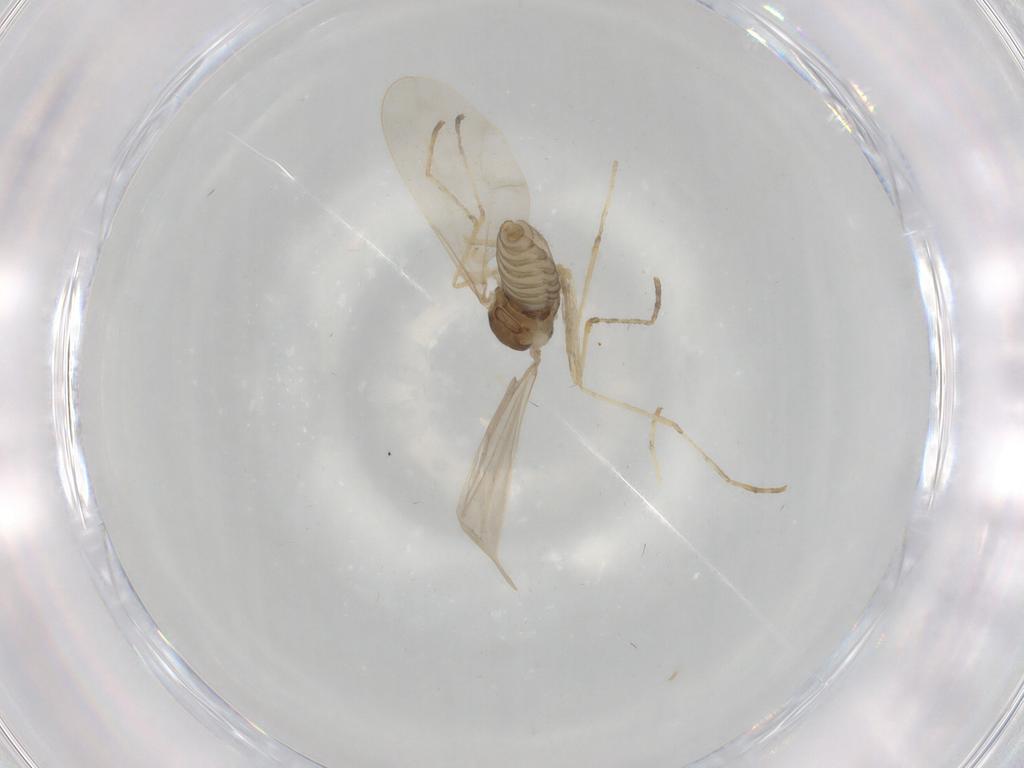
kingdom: Animalia
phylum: Arthropoda
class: Insecta
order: Diptera
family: Cecidomyiidae
